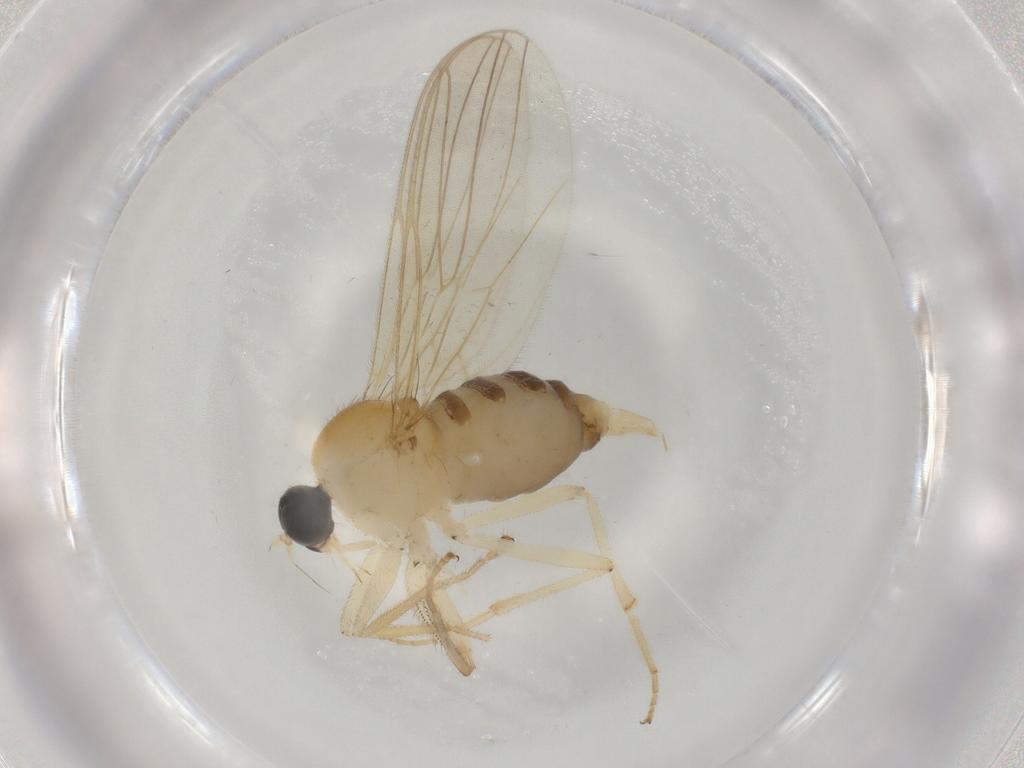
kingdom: Animalia
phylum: Arthropoda
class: Insecta
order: Diptera
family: Hybotidae
